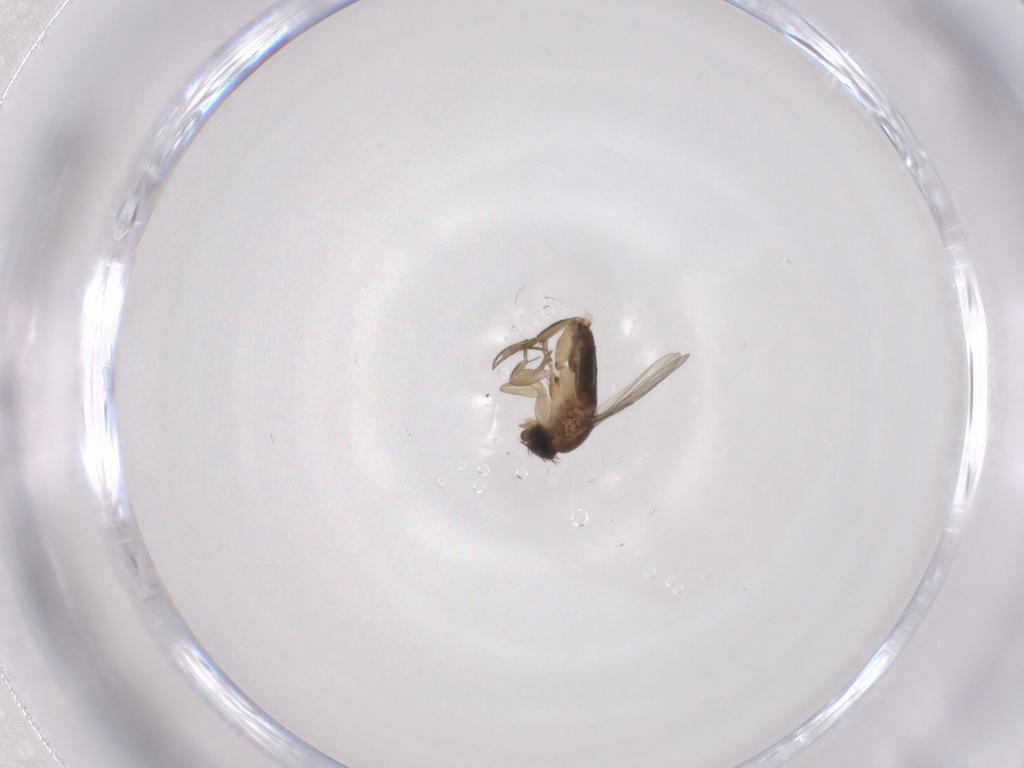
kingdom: Animalia
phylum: Arthropoda
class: Insecta
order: Diptera
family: Phoridae
